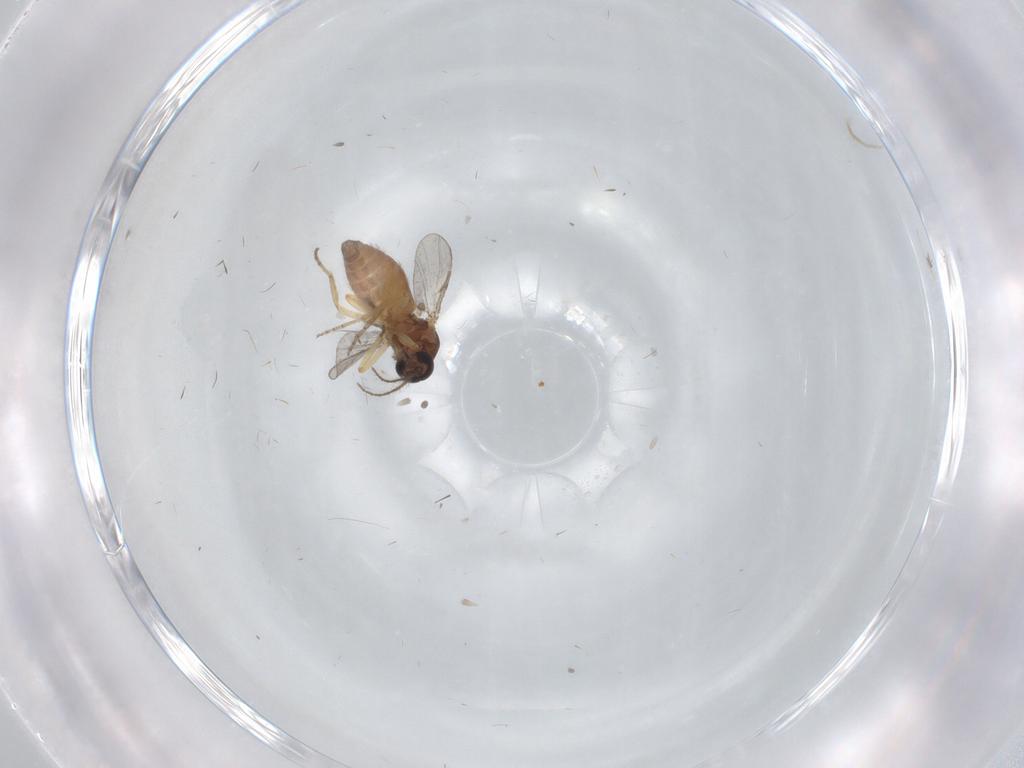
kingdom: Animalia
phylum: Arthropoda
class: Insecta
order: Diptera
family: Ceratopogonidae
